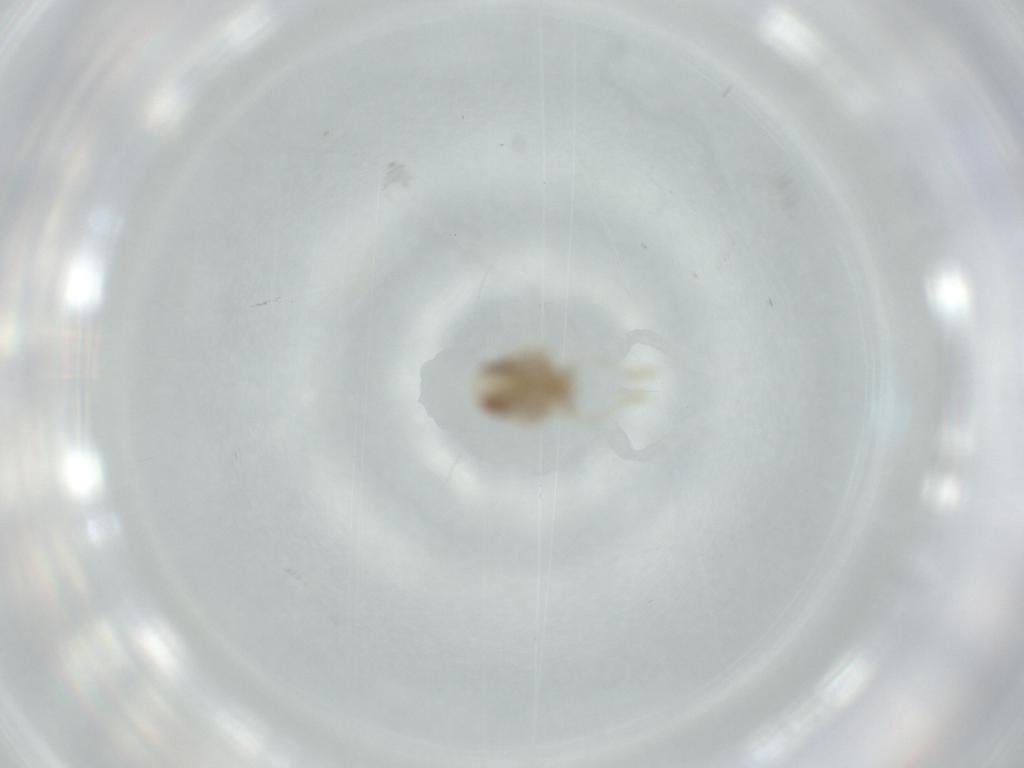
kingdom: Animalia
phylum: Arthropoda
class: Insecta
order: Hemiptera
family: Acanaloniidae
